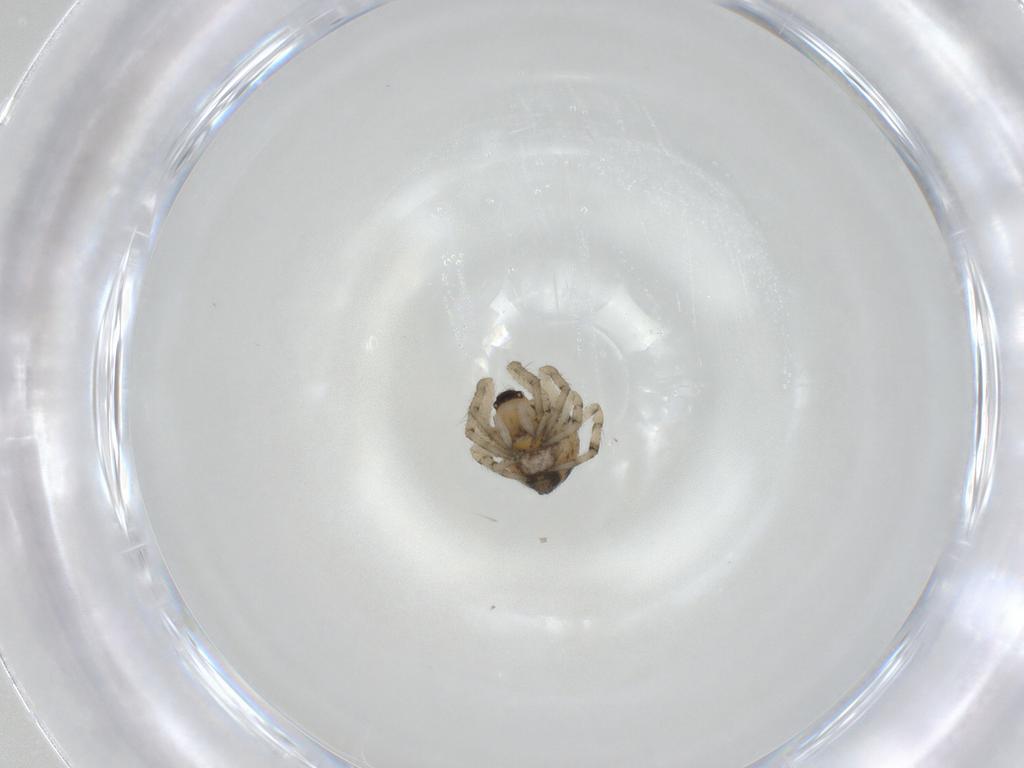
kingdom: Animalia
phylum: Arthropoda
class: Arachnida
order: Araneae
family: Theridiidae
